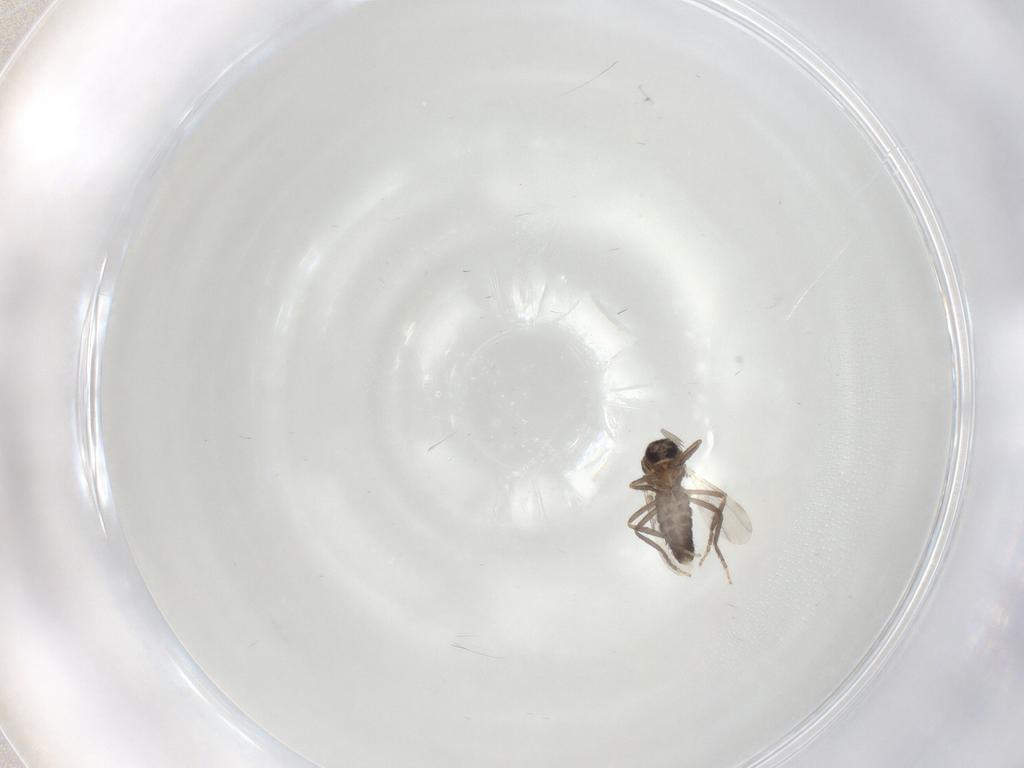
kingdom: Animalia
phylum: Arthropoda
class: Insecta
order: Diptera
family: Ceratopogonidae
